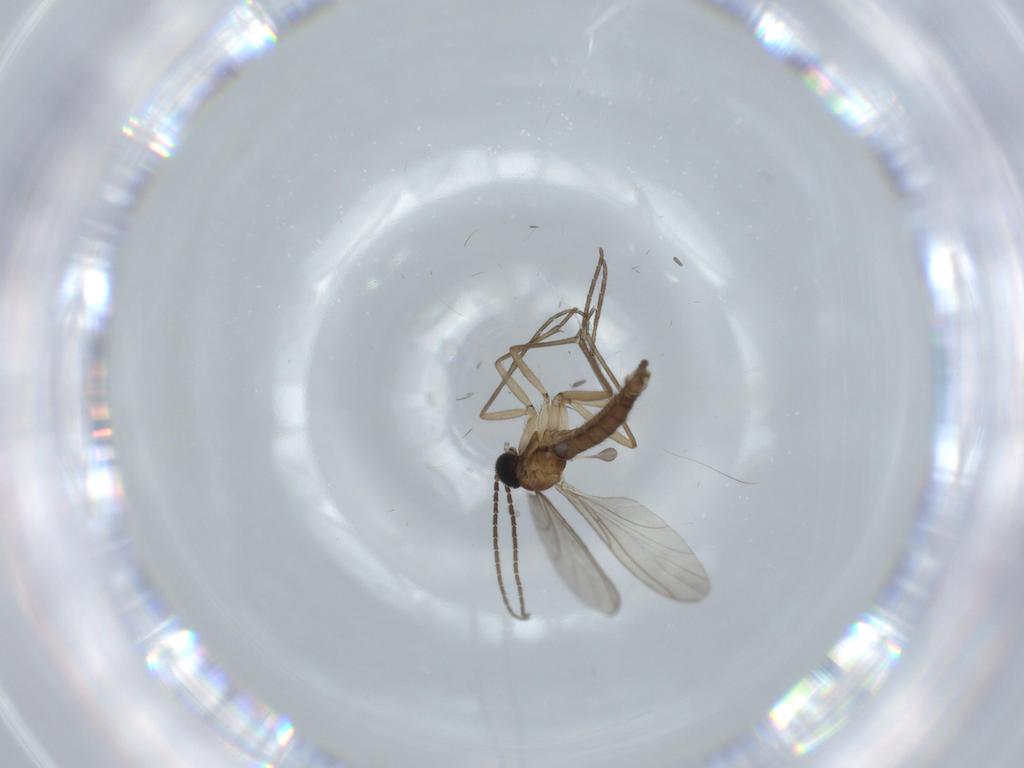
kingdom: Animalia
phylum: Arthropoda
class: Insecta
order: Diptera
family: Sciaridae
